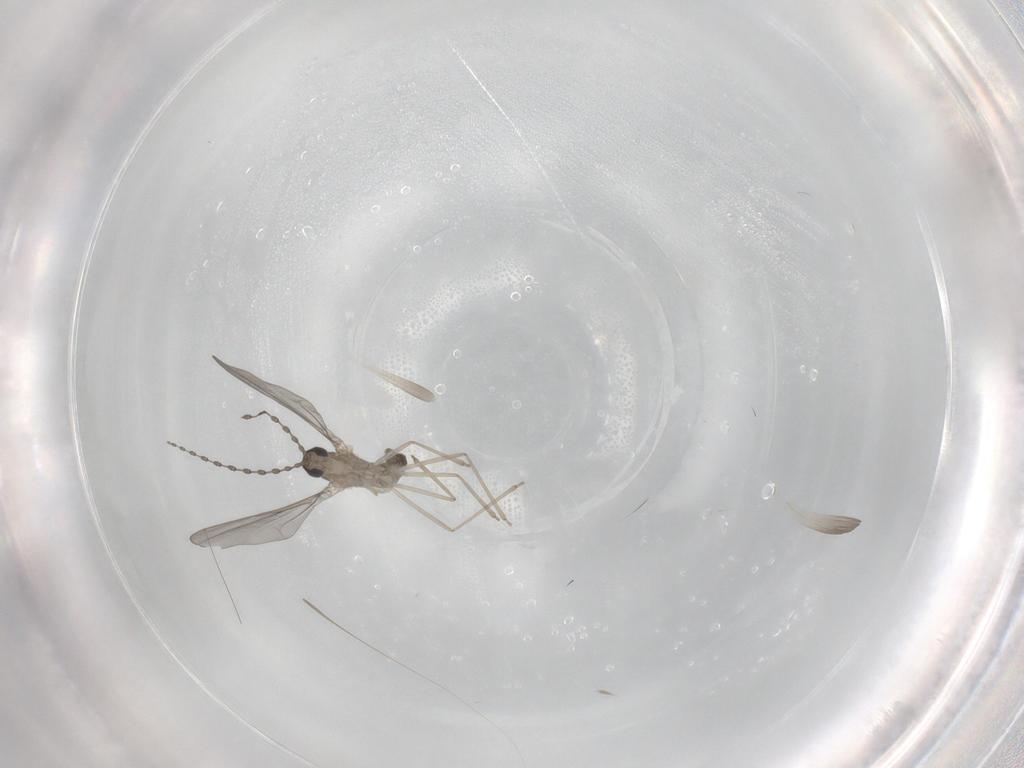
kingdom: Animalia
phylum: Arthropoda
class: Insecta
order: Diptera
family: Cecidomyiidae
